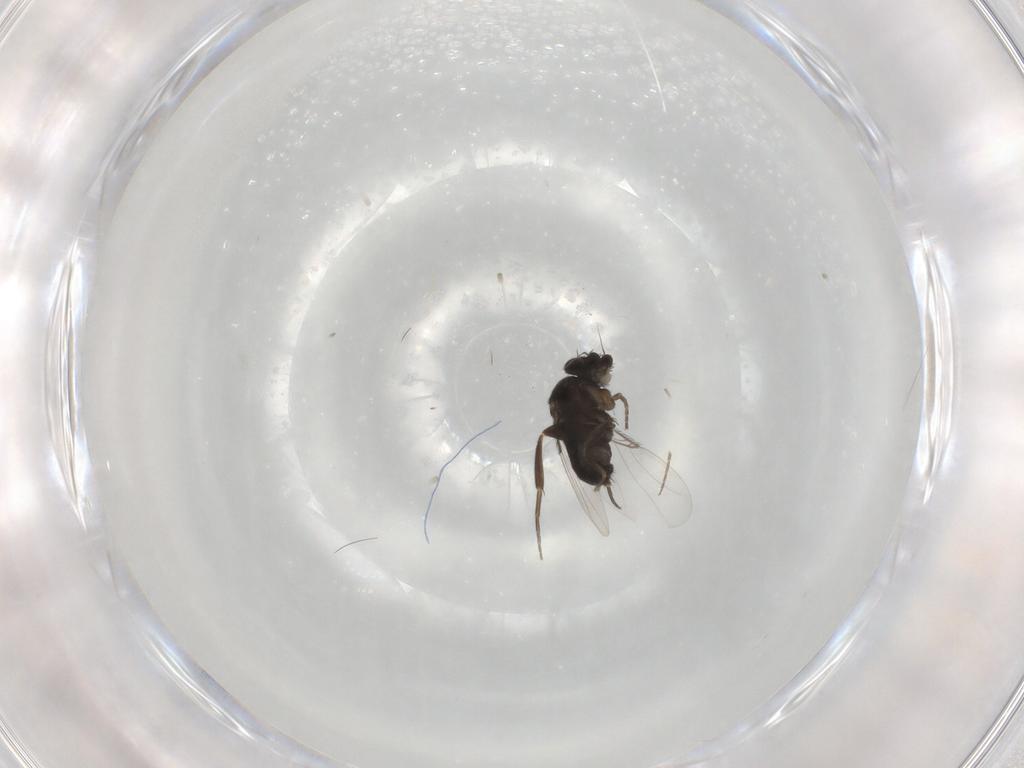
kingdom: Animalia
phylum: Arthropoda
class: Insecta
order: Diptera
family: Phoridae
